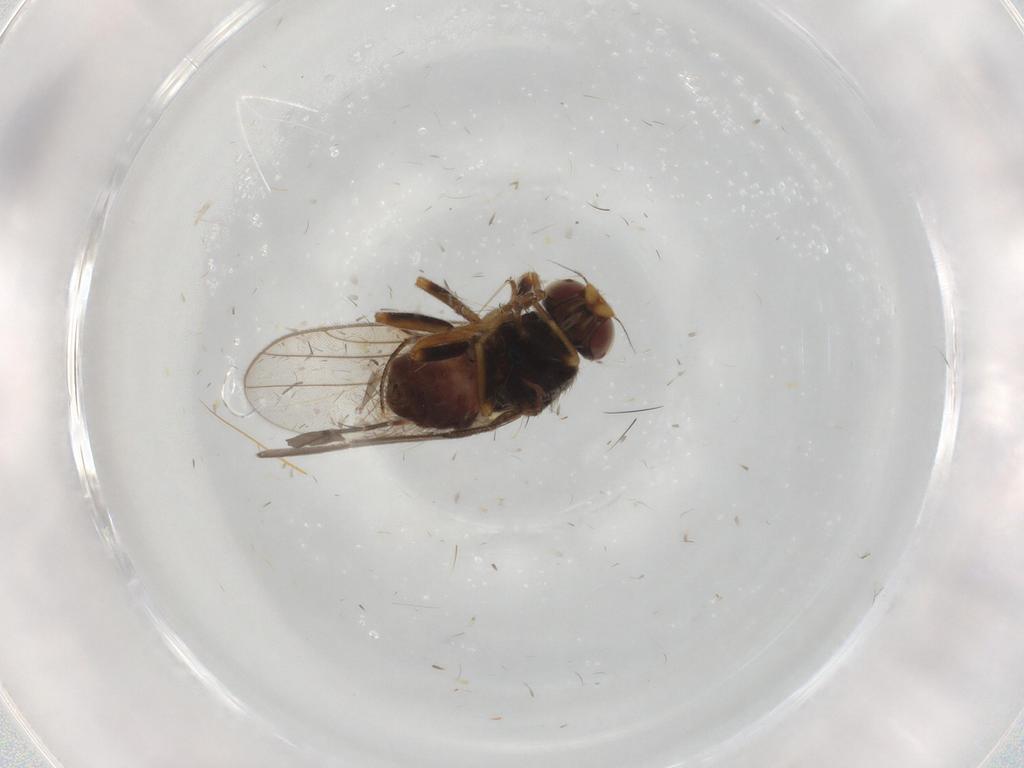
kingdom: Animalia
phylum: Arthropoda
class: Insecta
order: Diptera
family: Chloropidae
